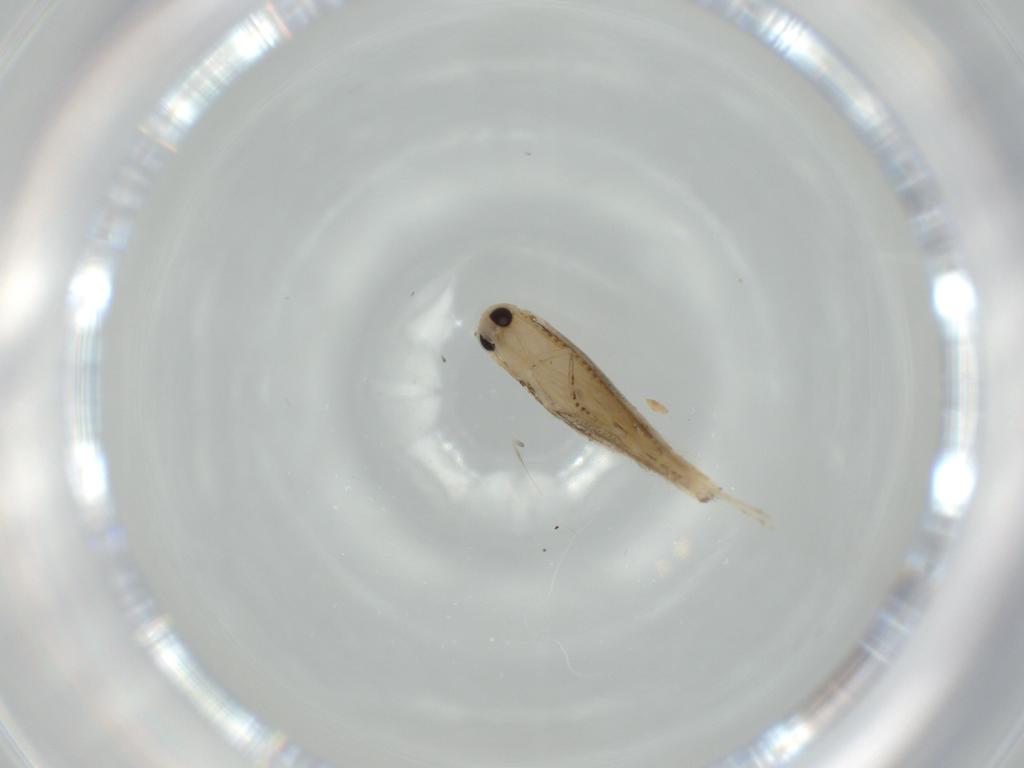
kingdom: Animalia
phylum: Arthropoda
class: Insecta
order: Lepidoptera
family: Bucculatricidae
